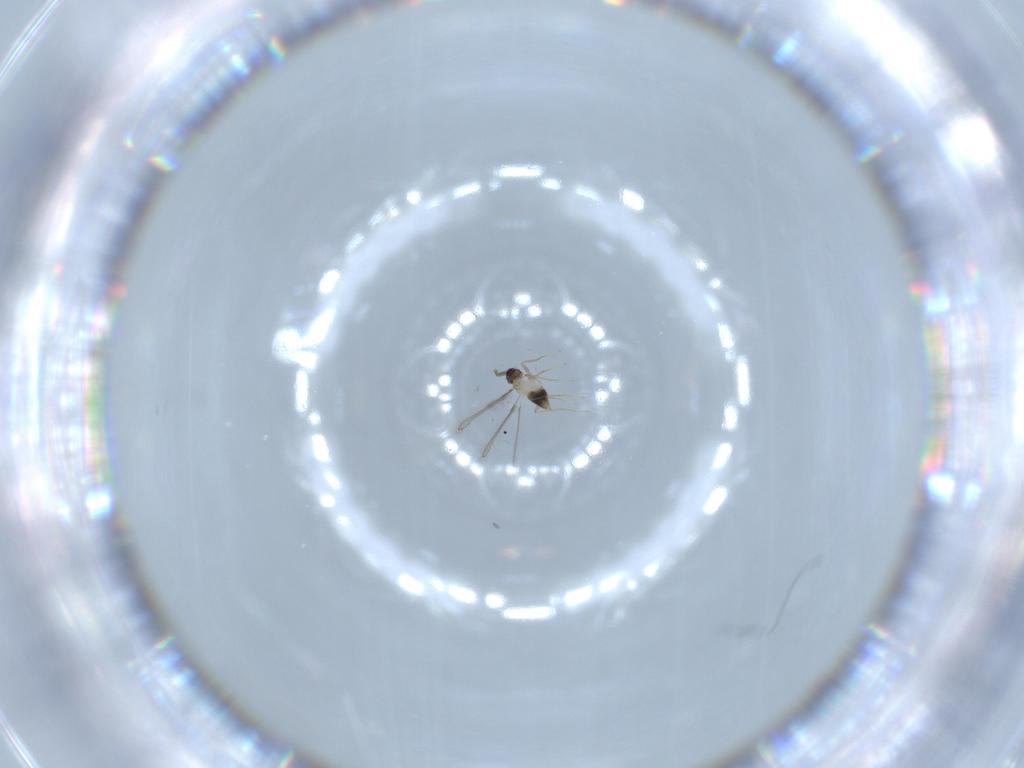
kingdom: Animalia
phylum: Arthropoda
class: Insecta
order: Hymenoptera
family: Mymaridae
